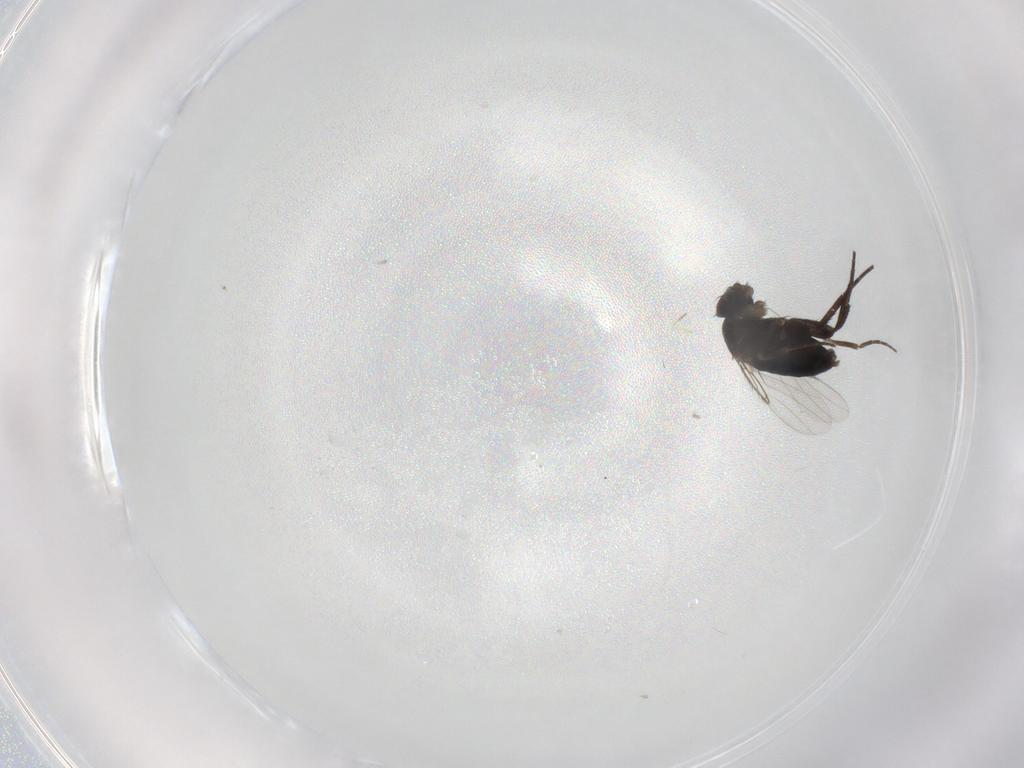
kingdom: Animalia
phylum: Arthropoda
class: Insecta
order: Diptera
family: Phoridae
